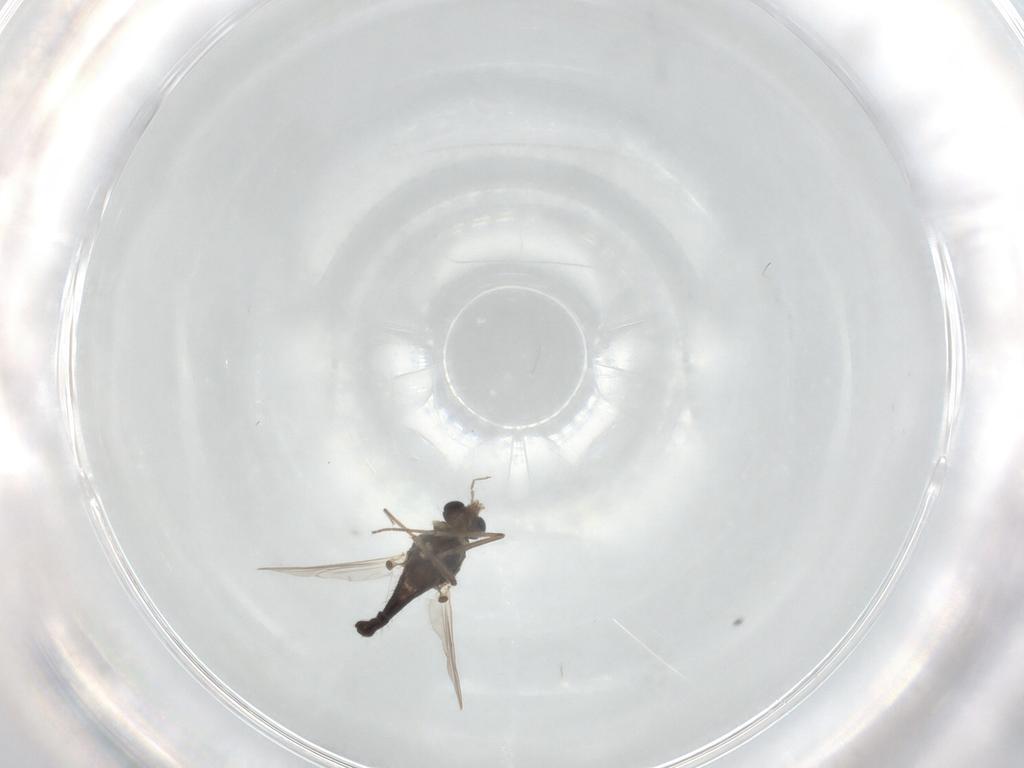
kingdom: Animalia
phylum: Arthropoda
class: Insecta
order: Diptera
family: Chironomidae
